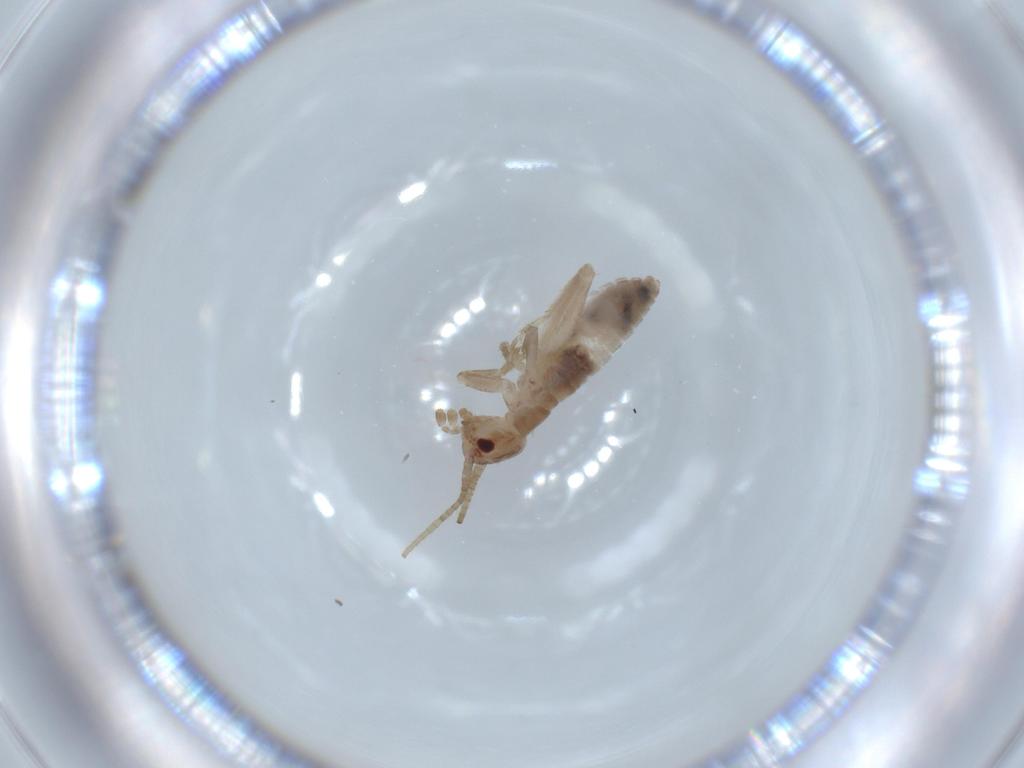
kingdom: Animalia
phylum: Arthropoda
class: Insecta
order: Orthoptera
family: Mogoplistidae
